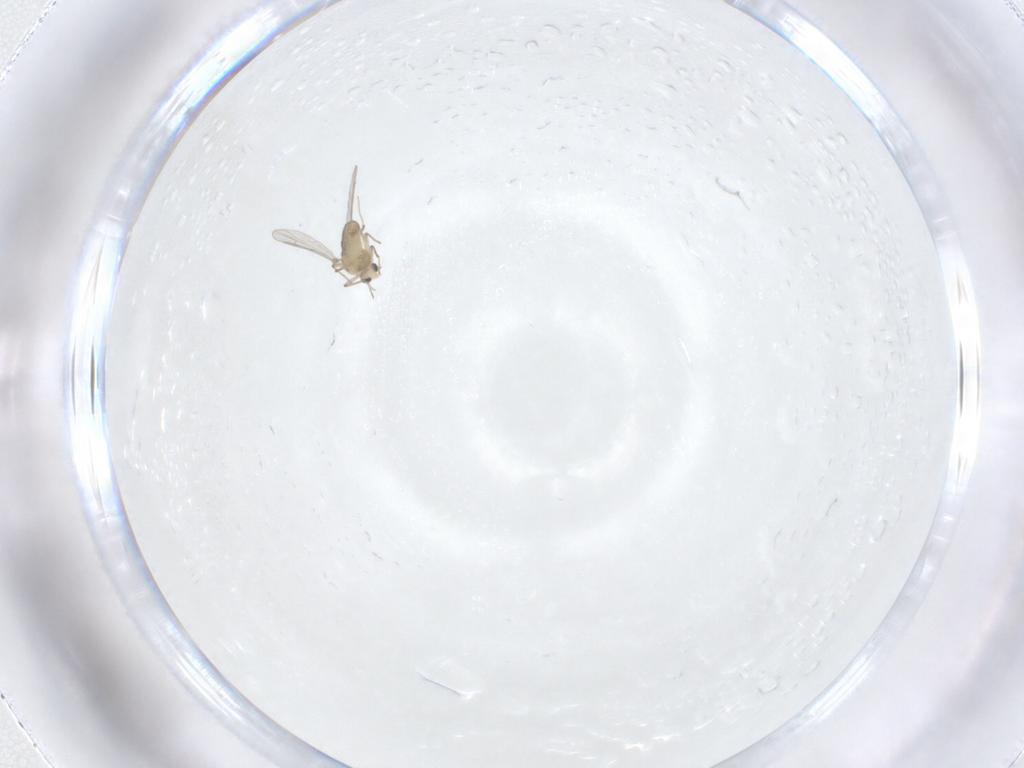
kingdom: Animalia
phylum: Arthropoda
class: Insecta
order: Diptera
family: Chironomidae
